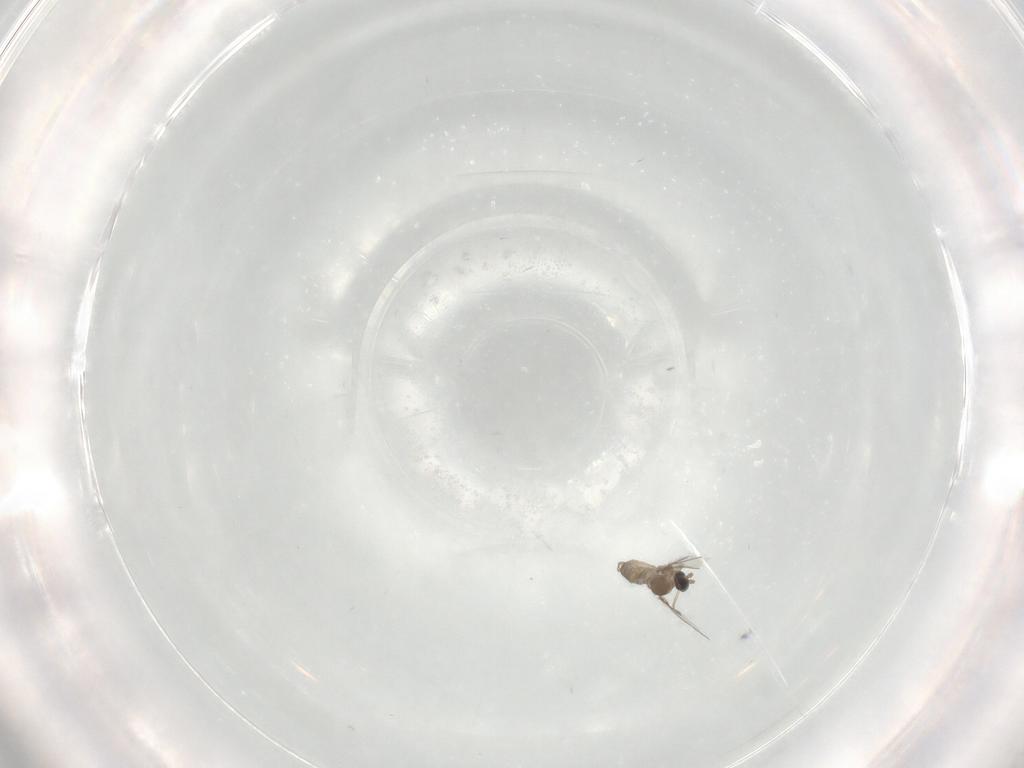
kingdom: Animalia
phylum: Arthropoda
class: Insecta
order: Diptera
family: Cecidomyiidae
